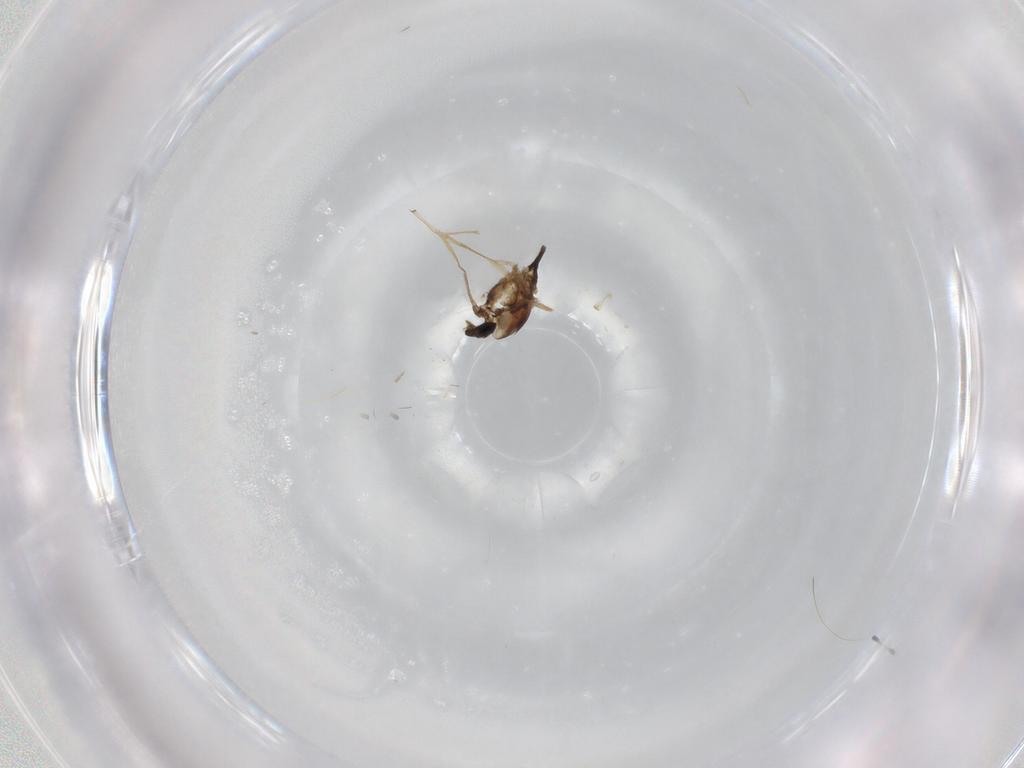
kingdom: Animalia
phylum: Arthropoda
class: Insecta
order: Diptera
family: Chironomidae
